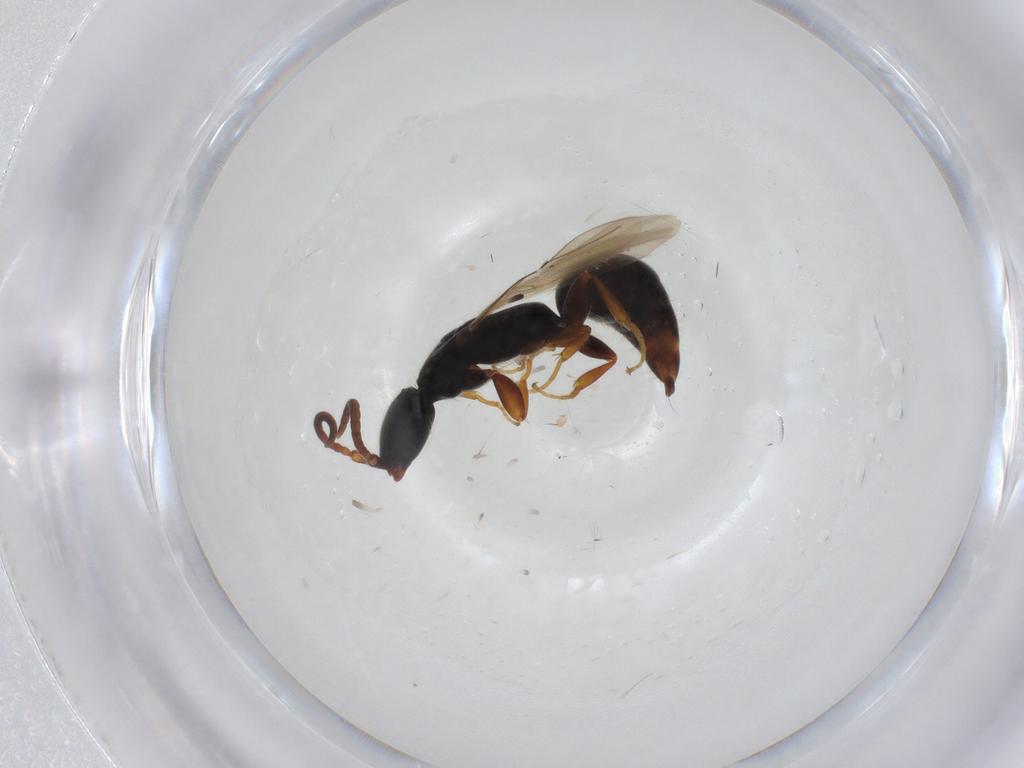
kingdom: Animalia
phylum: Arthropoda
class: Insecta
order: Hymenoptera
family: Bethylidae
